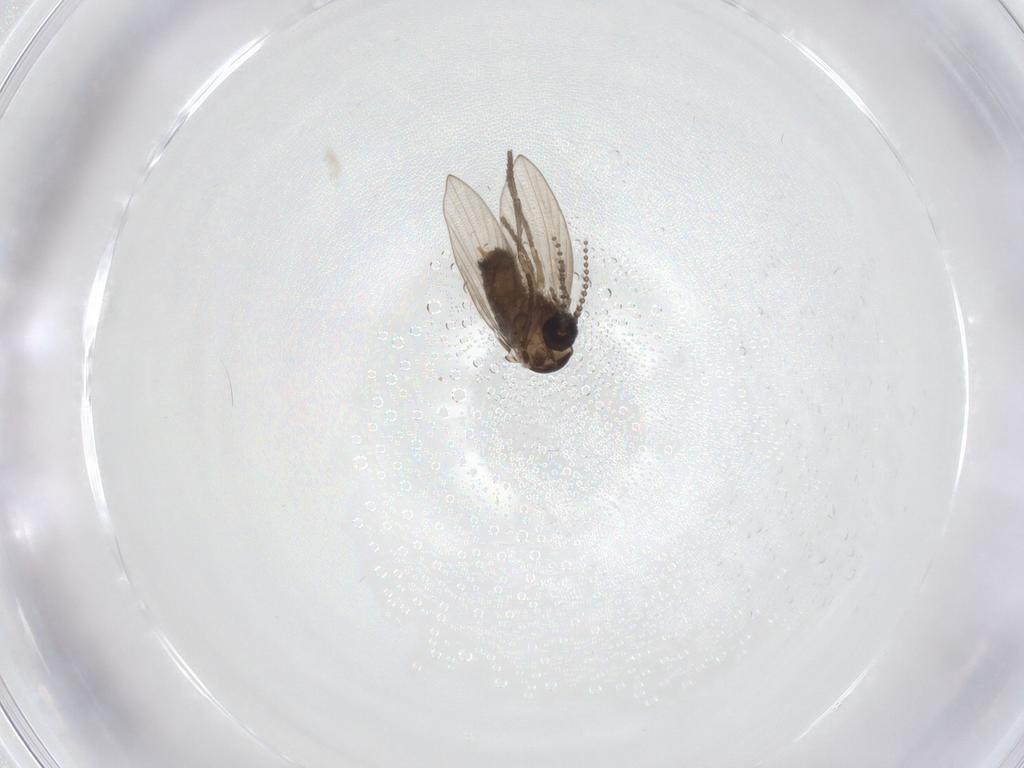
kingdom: Animalia
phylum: Arthropoda
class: Insecta
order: Diptera
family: Psychodidae
